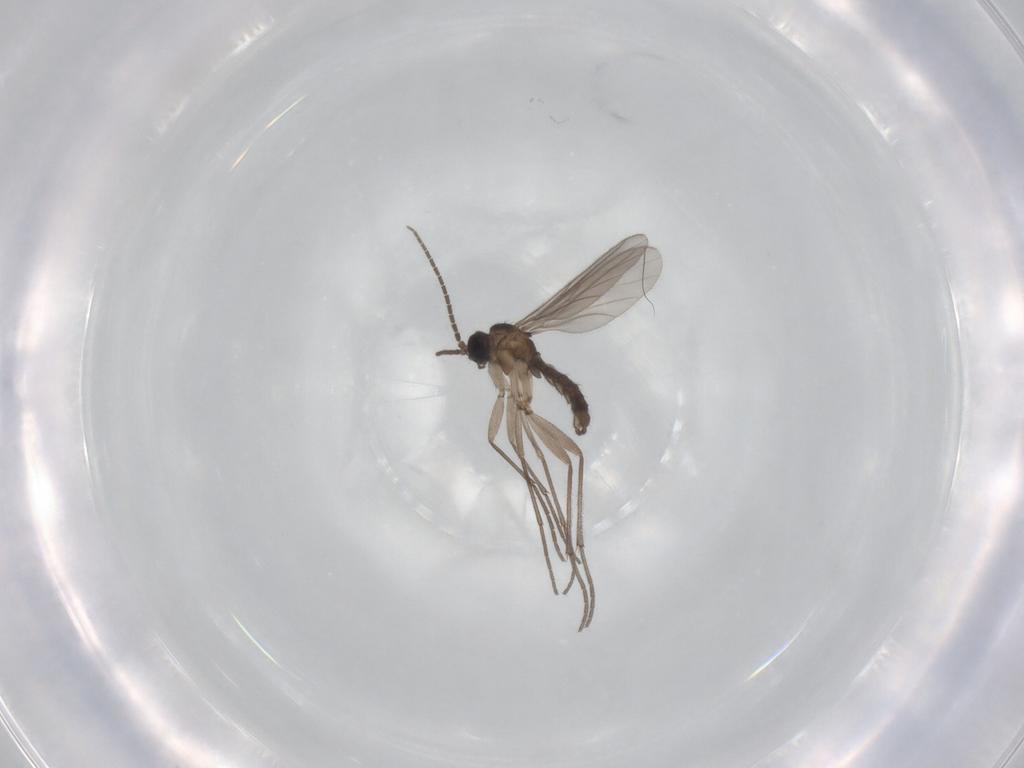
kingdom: Animalia
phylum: Arthropoda
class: Insecta
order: Diptera
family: Sciaridae
